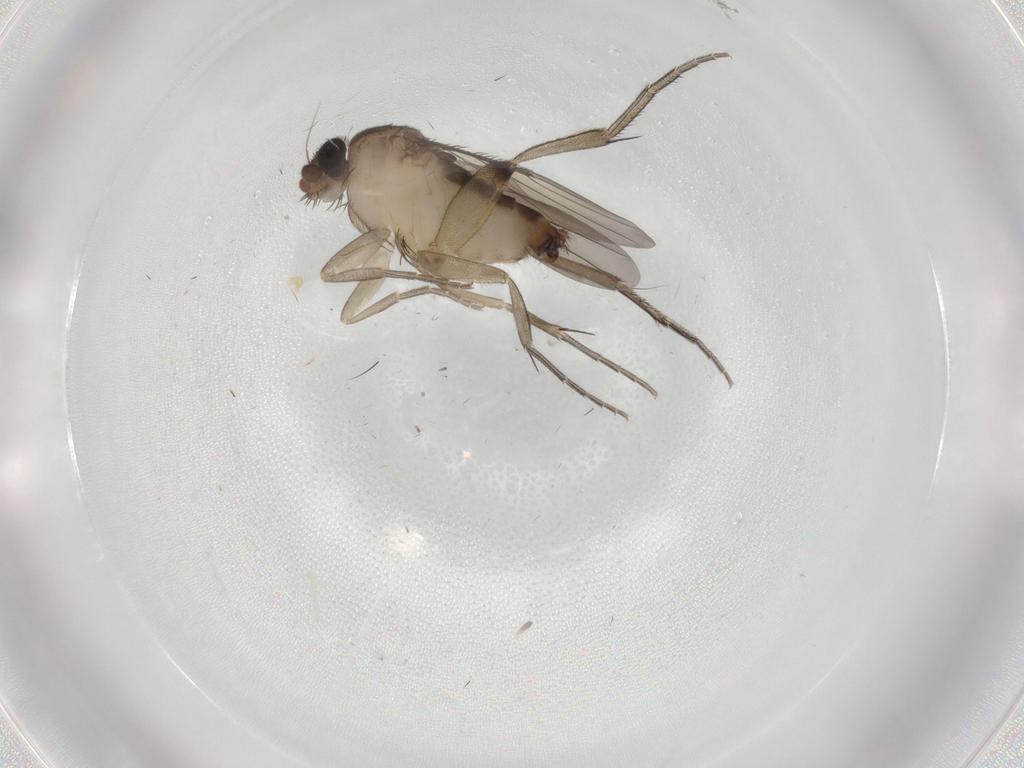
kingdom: Animalia
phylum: Arthropoda
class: Insecta
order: Diptera
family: Phoridae
